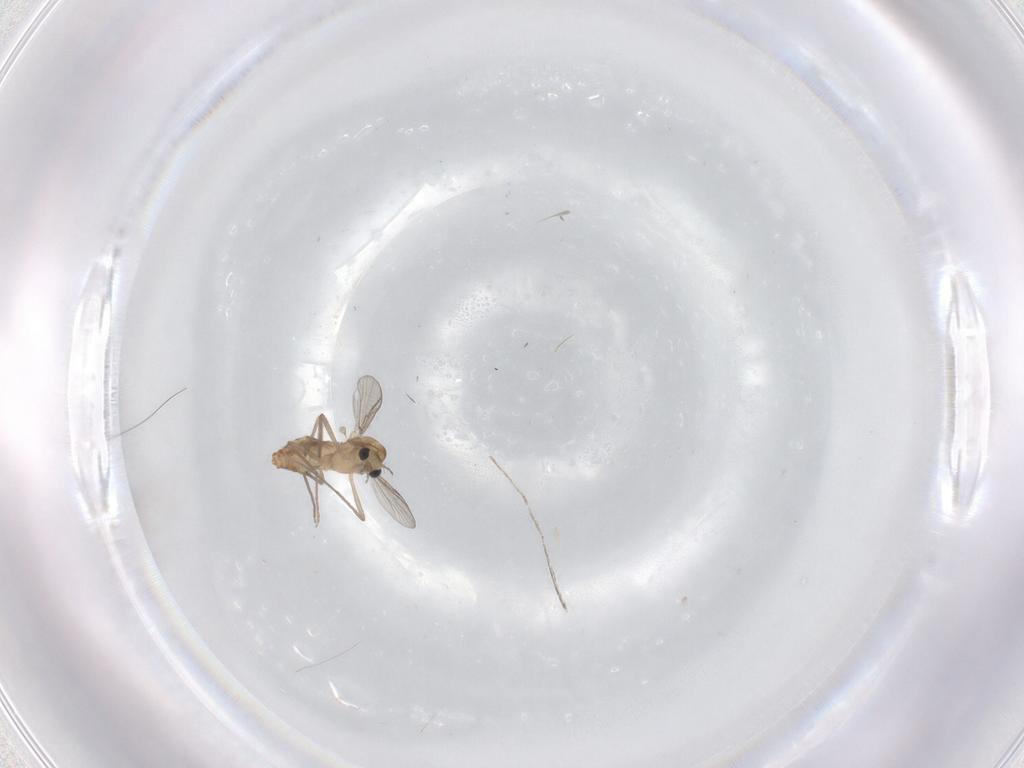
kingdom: Animalia
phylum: Arthropoda
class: Insecta
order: Diptera
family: Chironomidae
